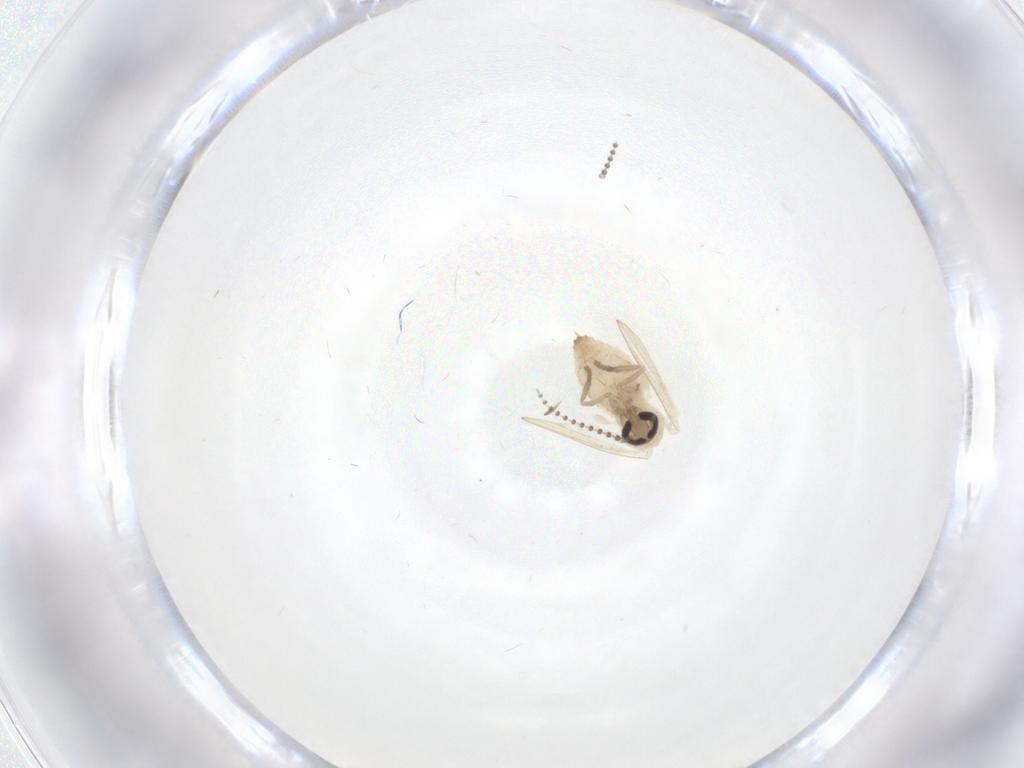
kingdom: Animalia
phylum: Arthropoda
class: Insecta
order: Diptera
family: Psychodidae
